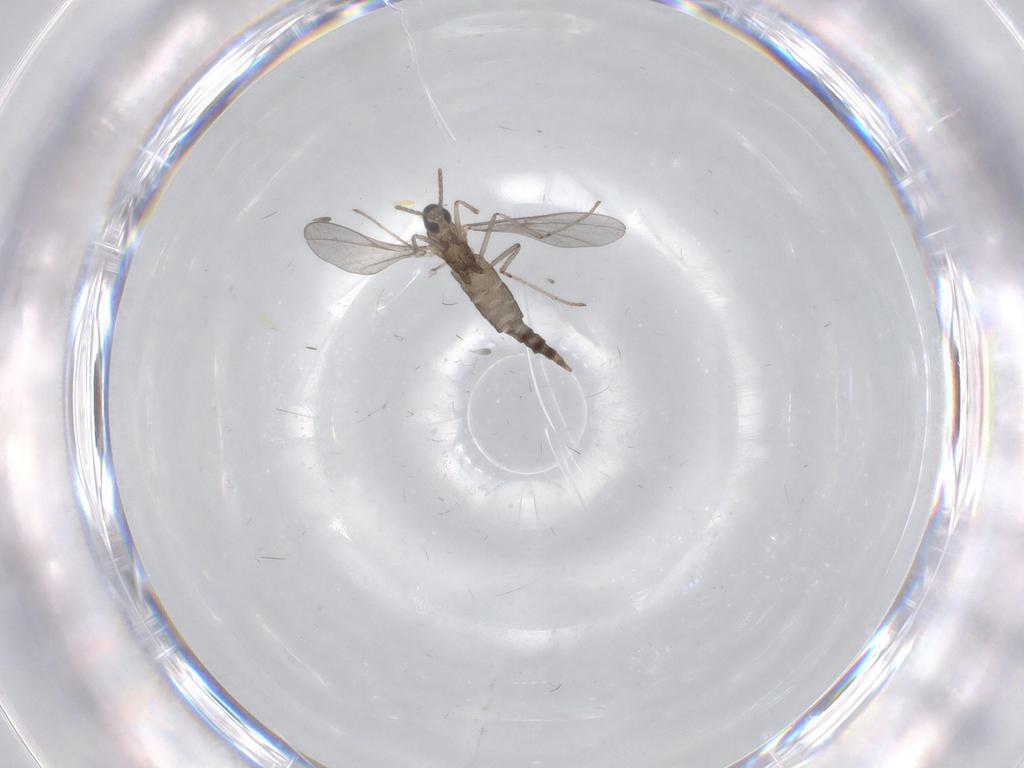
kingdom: Animalia
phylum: Arthropoda
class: Insecta
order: Diptera
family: Cecidomyiidae
